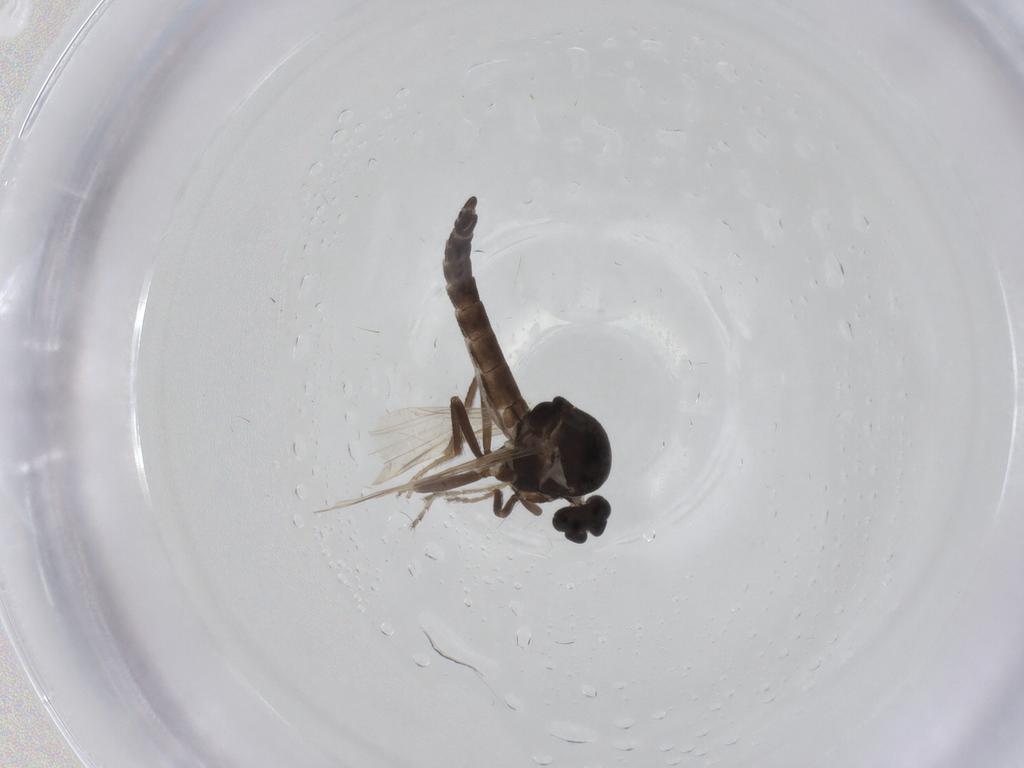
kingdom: Animalia
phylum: Arthropoda
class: Insecta
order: Diptera
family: Ceratopogonidae
